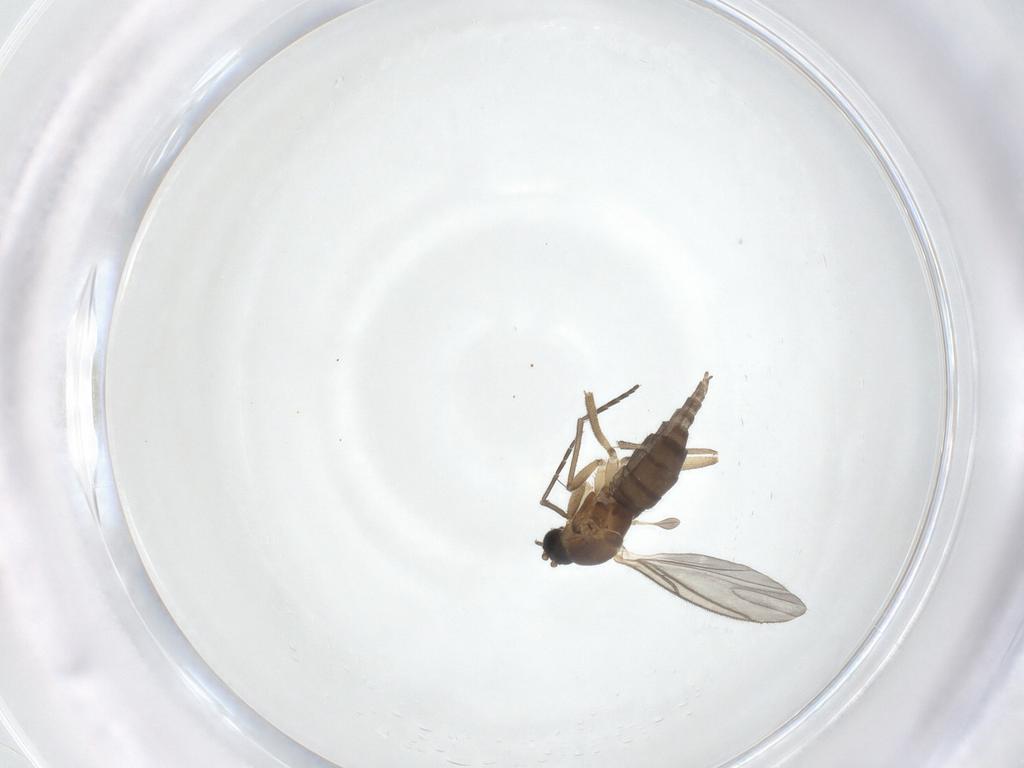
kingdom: Animalia
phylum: Arthropoda
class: Insecta
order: Diptera
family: Sciaridae
